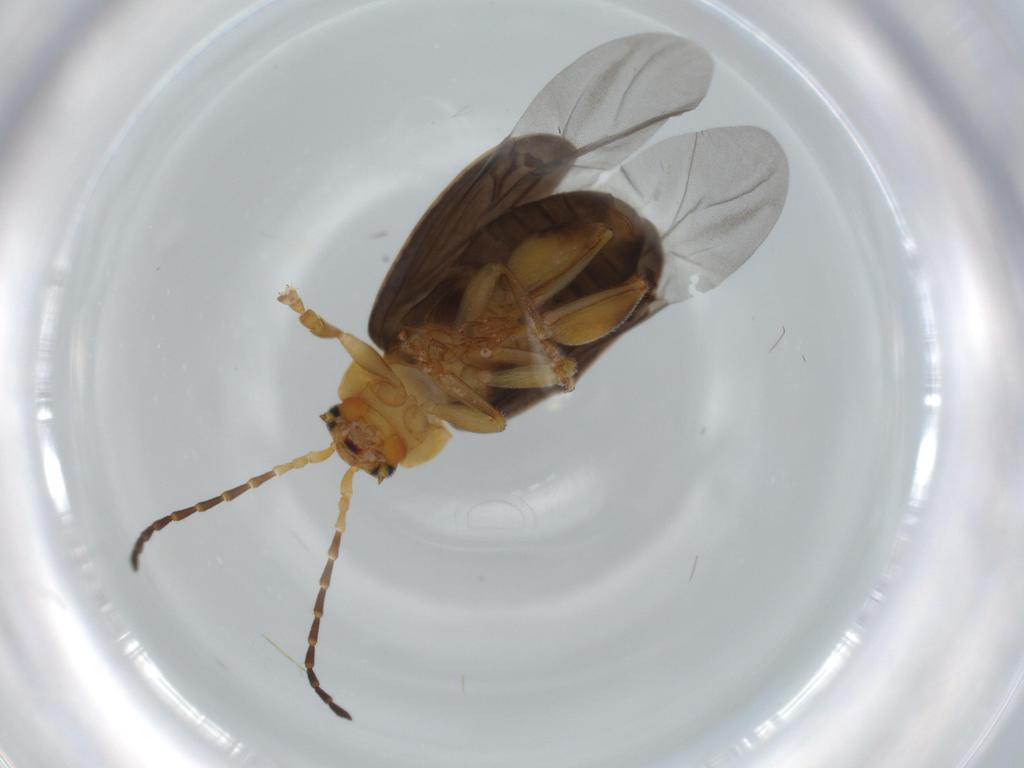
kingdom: Animalia
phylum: Arthropoda
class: Insecta
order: Coleoptera
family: Chrysomelidae
